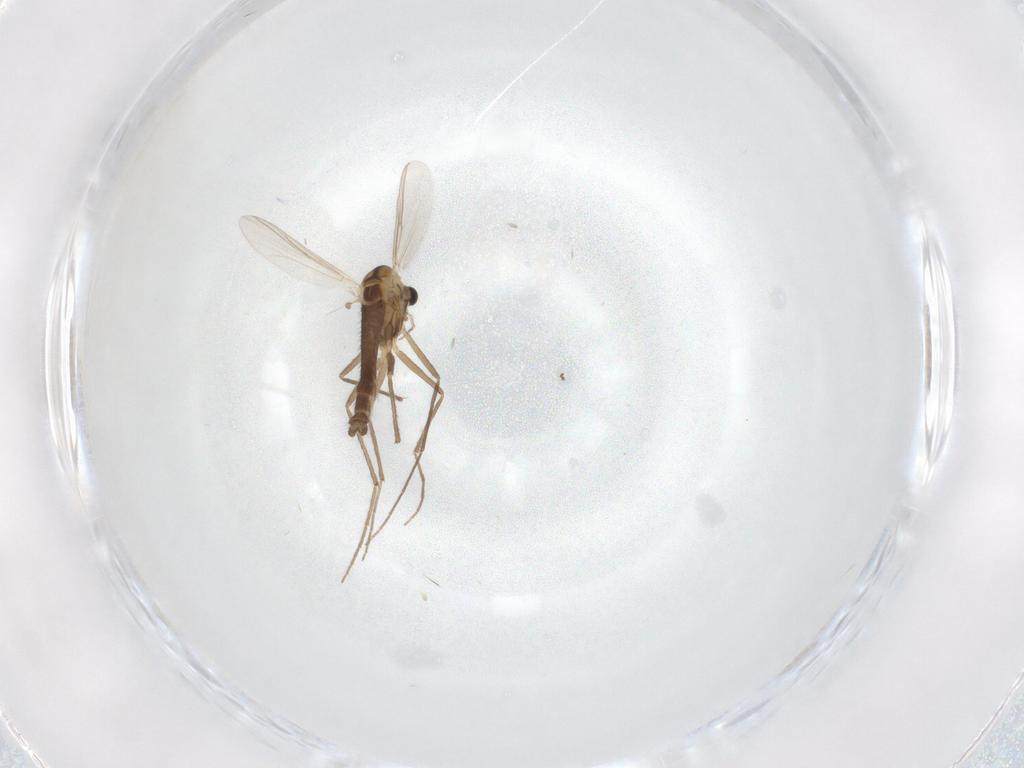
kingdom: Animalia
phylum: Arthropoda
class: Insecta
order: Diptera
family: Chironomidae
